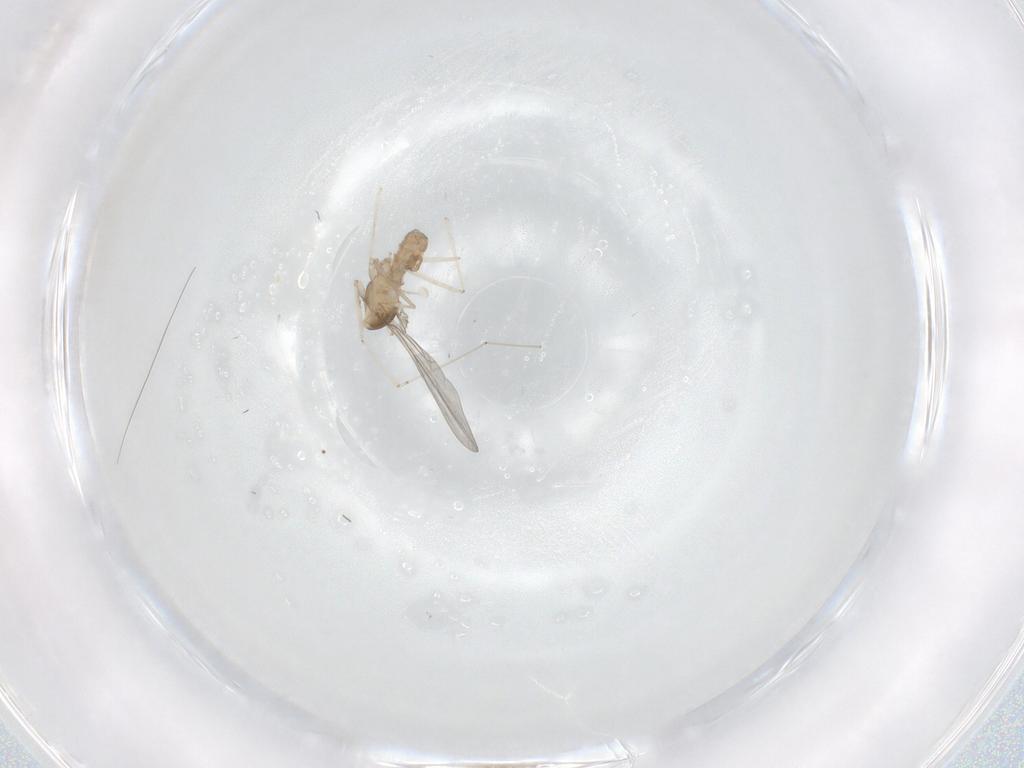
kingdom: Animalia
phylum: Arthropoda
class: Insecta
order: Diptera
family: Cecidomyiidae
